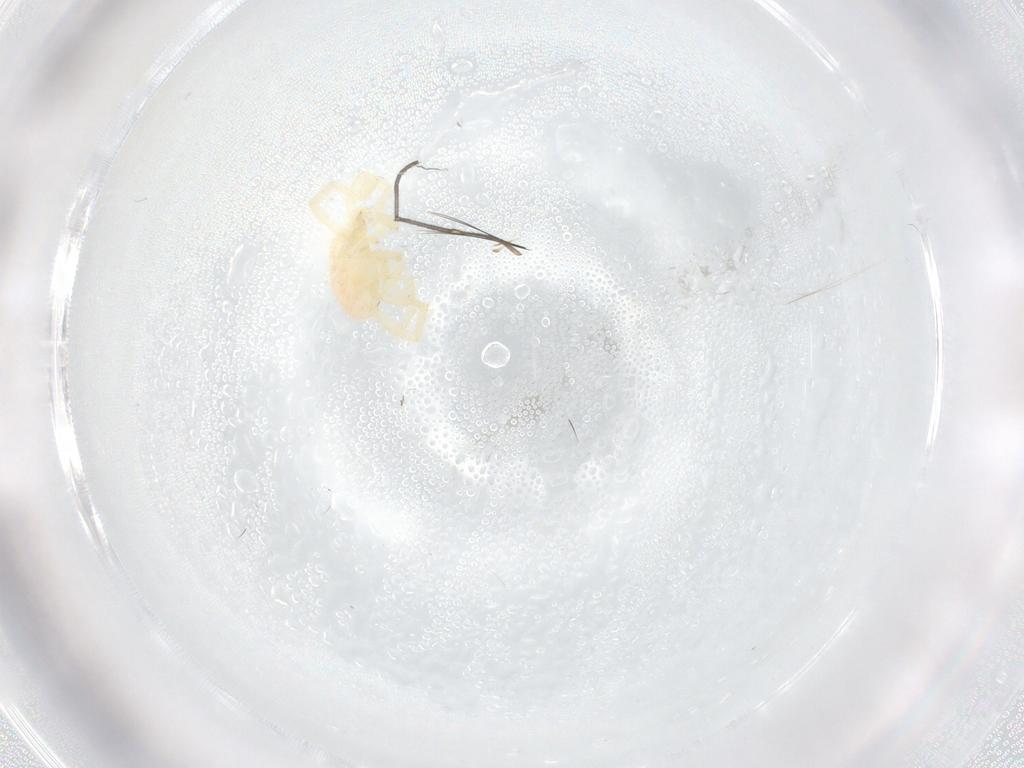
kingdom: Animalia
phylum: Arthropoda
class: Arachnida
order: Trombidiformes
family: Erythraeidae
